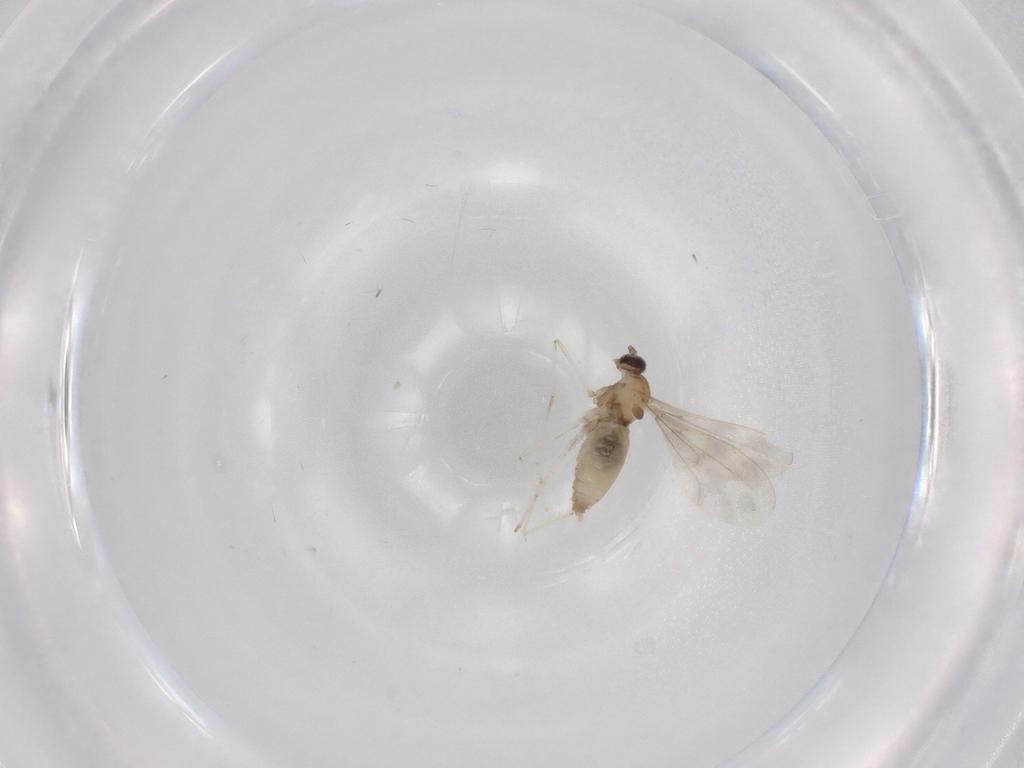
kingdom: Animalia
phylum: Arthropoda
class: Insecta
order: Diptera
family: Cecidomyiidae
